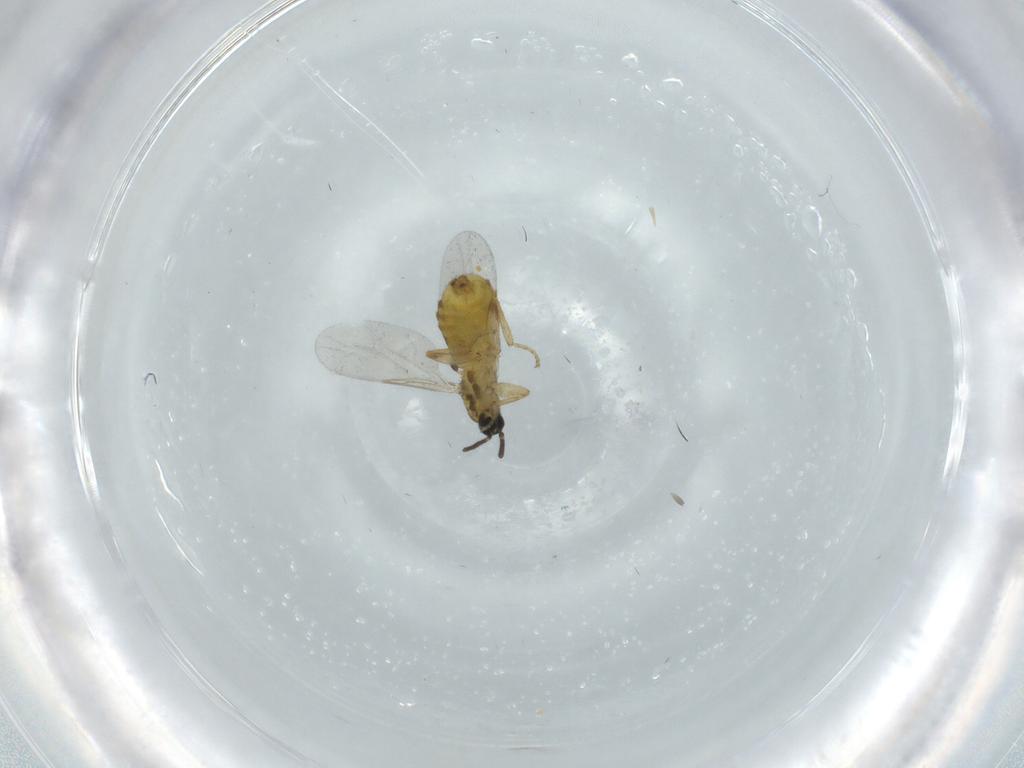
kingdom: Animalia
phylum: Arthropoda
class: Insecta
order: Diptera
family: Scatopsidae
